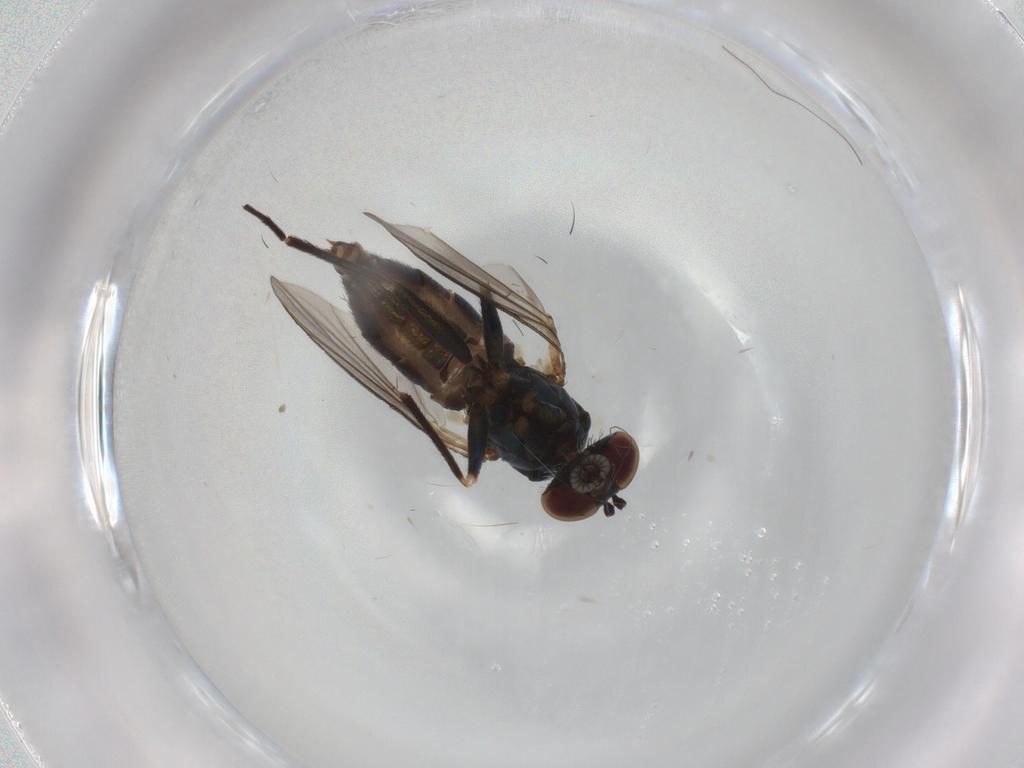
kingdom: Animalia
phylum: Arthropoda
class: Insecta
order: Diptera
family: Dolichopodidae
